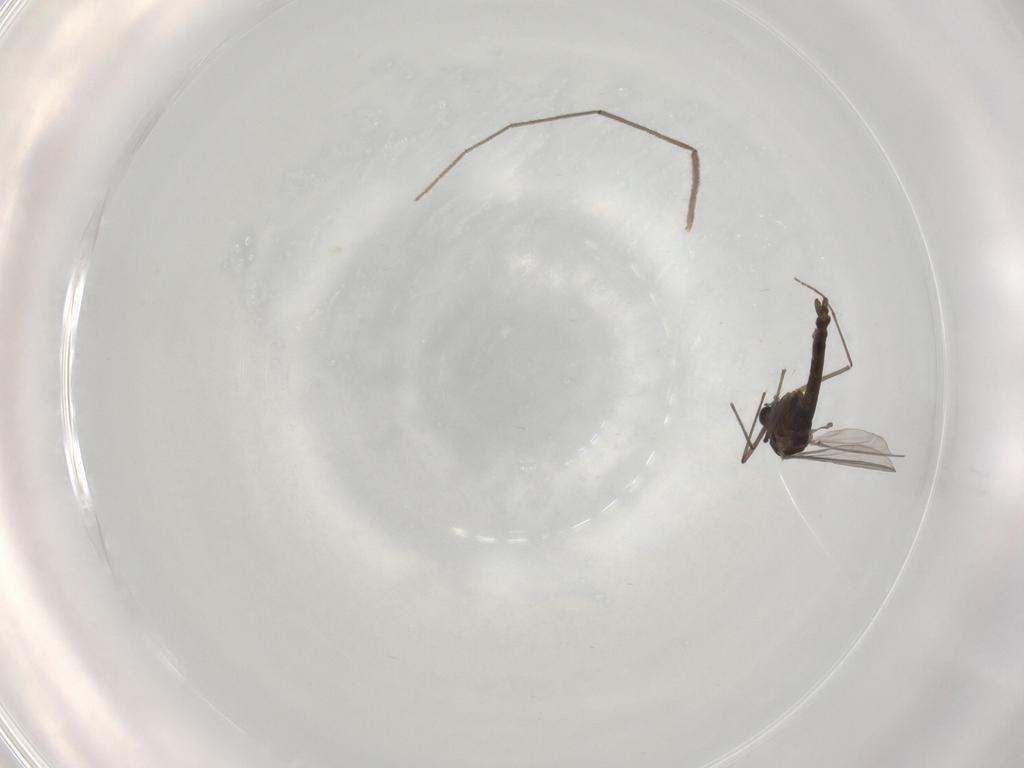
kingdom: Animalia
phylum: Arthropoda
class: Insecta
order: Diptera
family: Chironomidae
